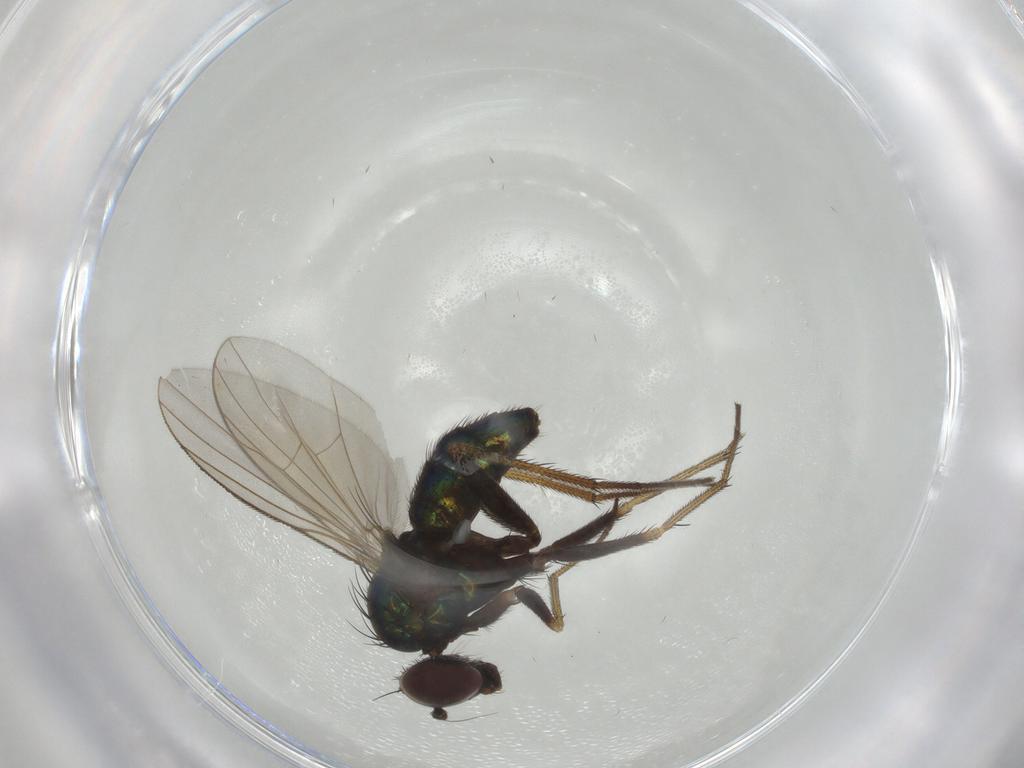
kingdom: Animalia
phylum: Arthropoda
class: Insecta
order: Diptera
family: Dolichopodidae
